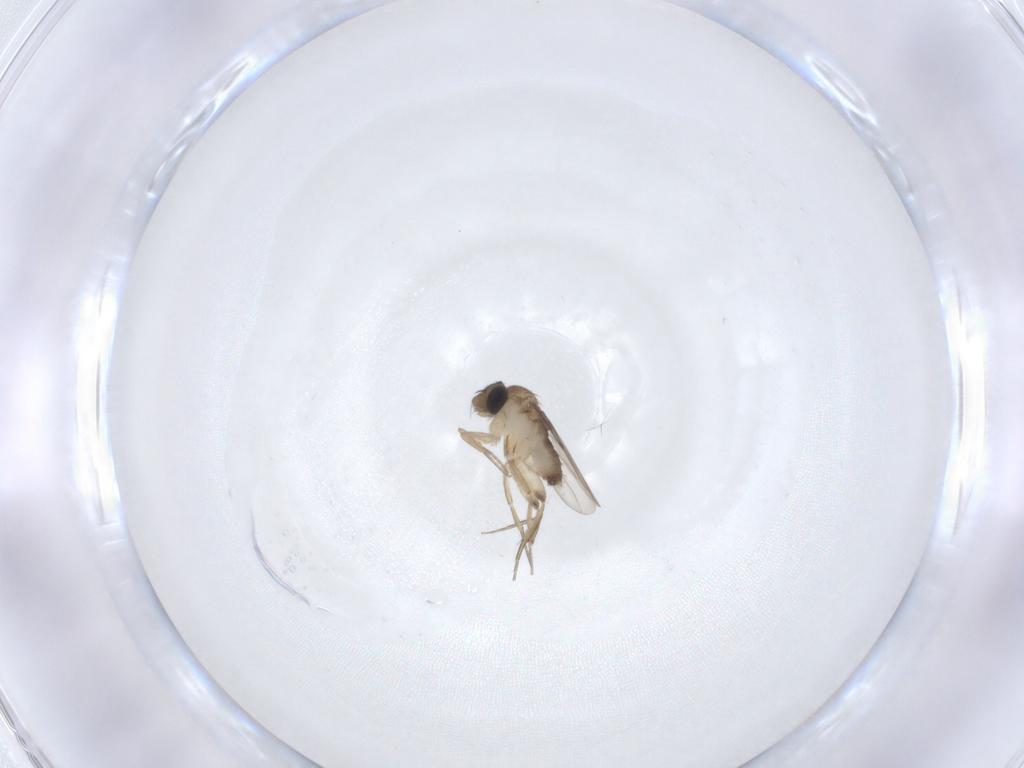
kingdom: Animalia
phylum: Arthropoda
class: Insecta
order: Diptera
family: Phoridae
